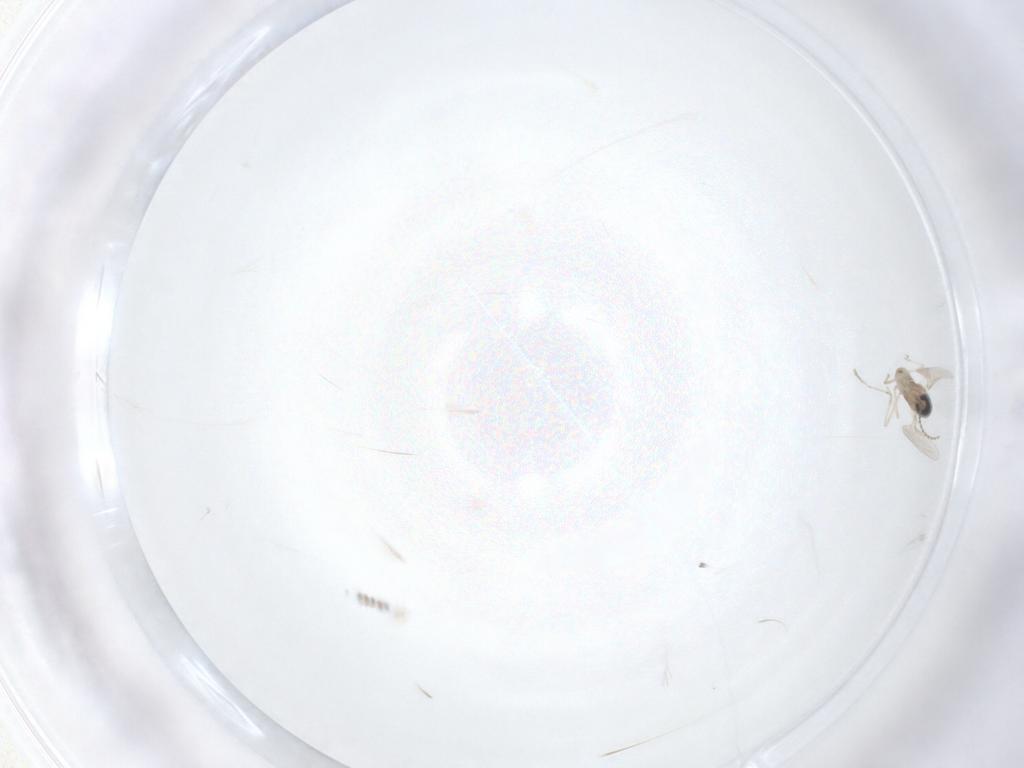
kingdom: Animalia
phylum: Arthropoda
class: Insecta
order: Diptera
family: Cecidomyiidae
